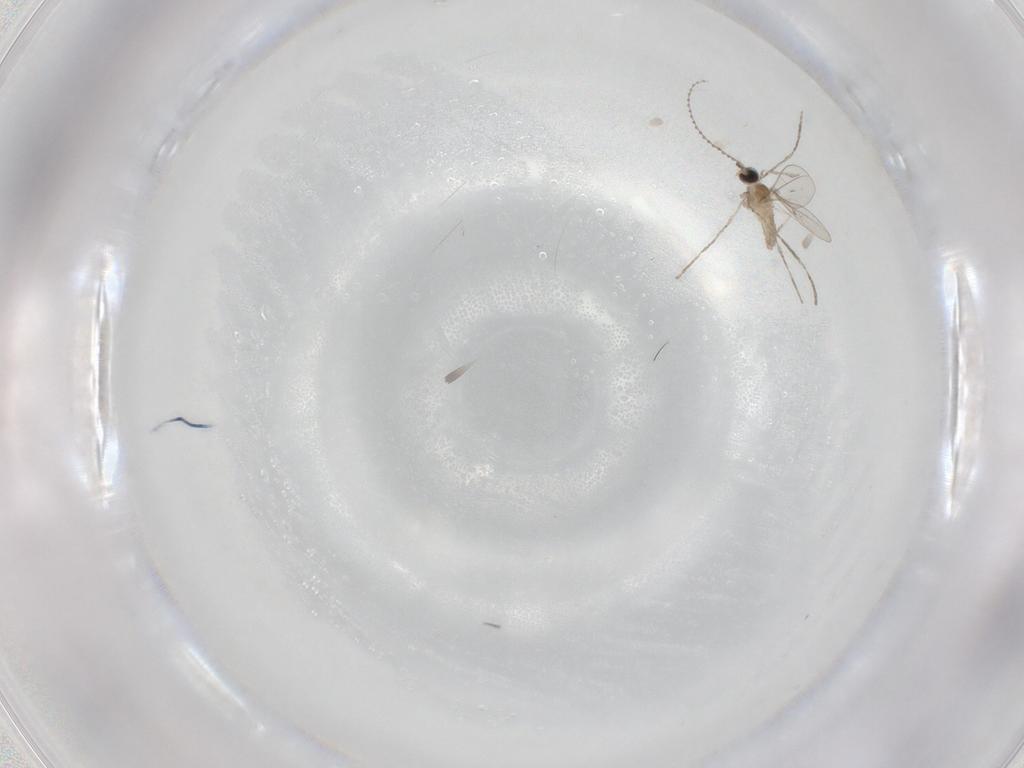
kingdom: Animalia
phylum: Arthropoda
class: Insecta
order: Diptera
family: Cecidomyiidae
